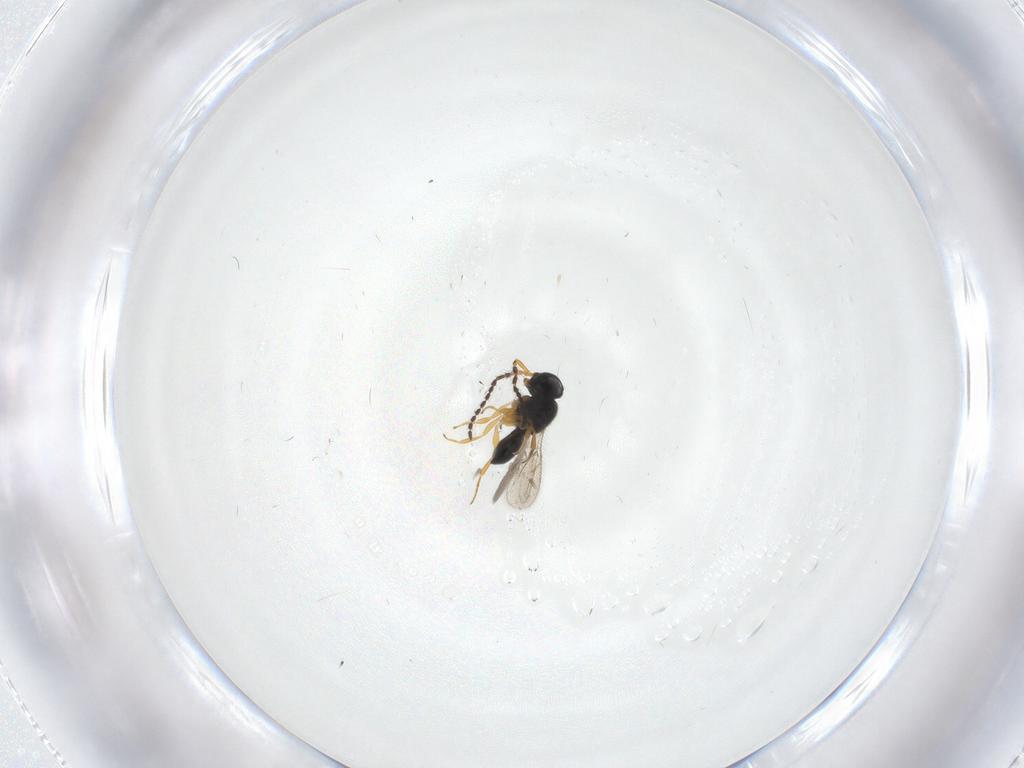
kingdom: Animalia
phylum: Arthropoda
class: Insecta
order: Hymenoptera
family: Scelionidae
